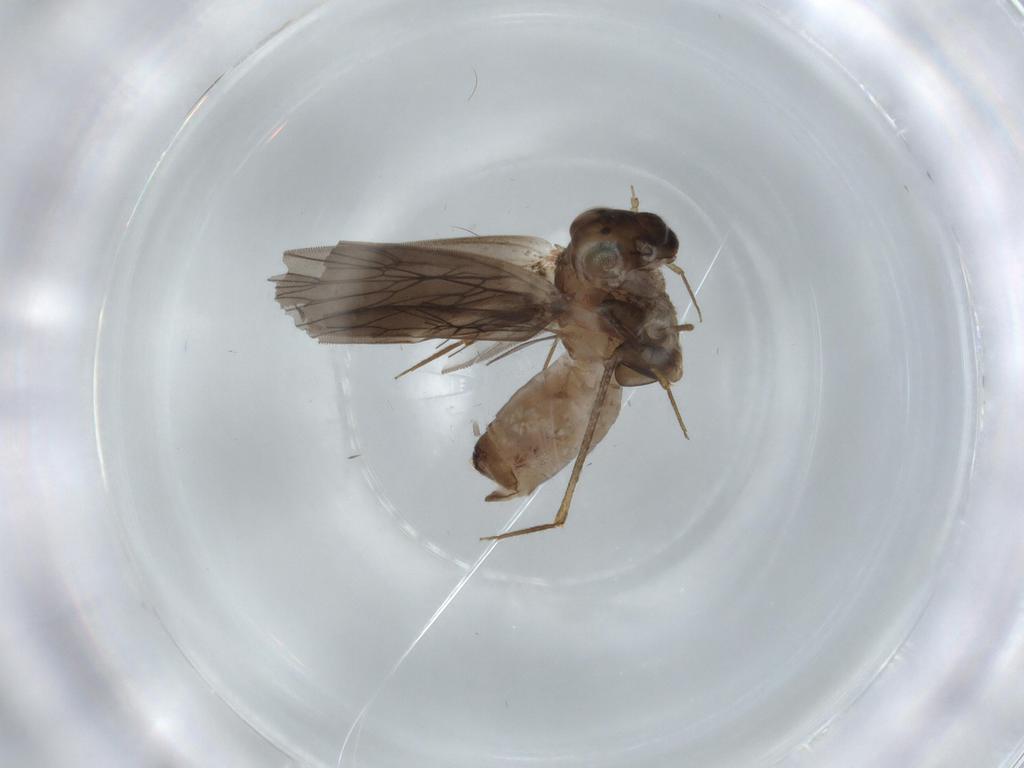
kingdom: Animalia
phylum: Arthropoda
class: Insecta
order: Psocodea
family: Lepidopsocidae
